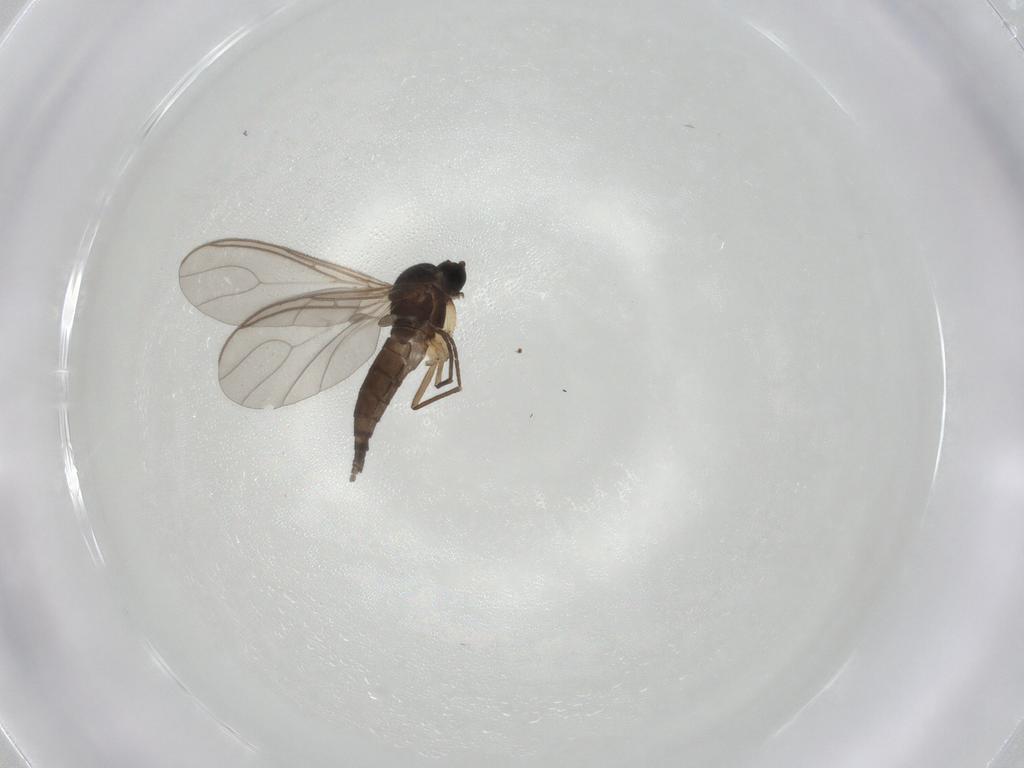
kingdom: Animalia
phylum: Arthropoda
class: Insecta
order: Diptera
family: Sciaridae
